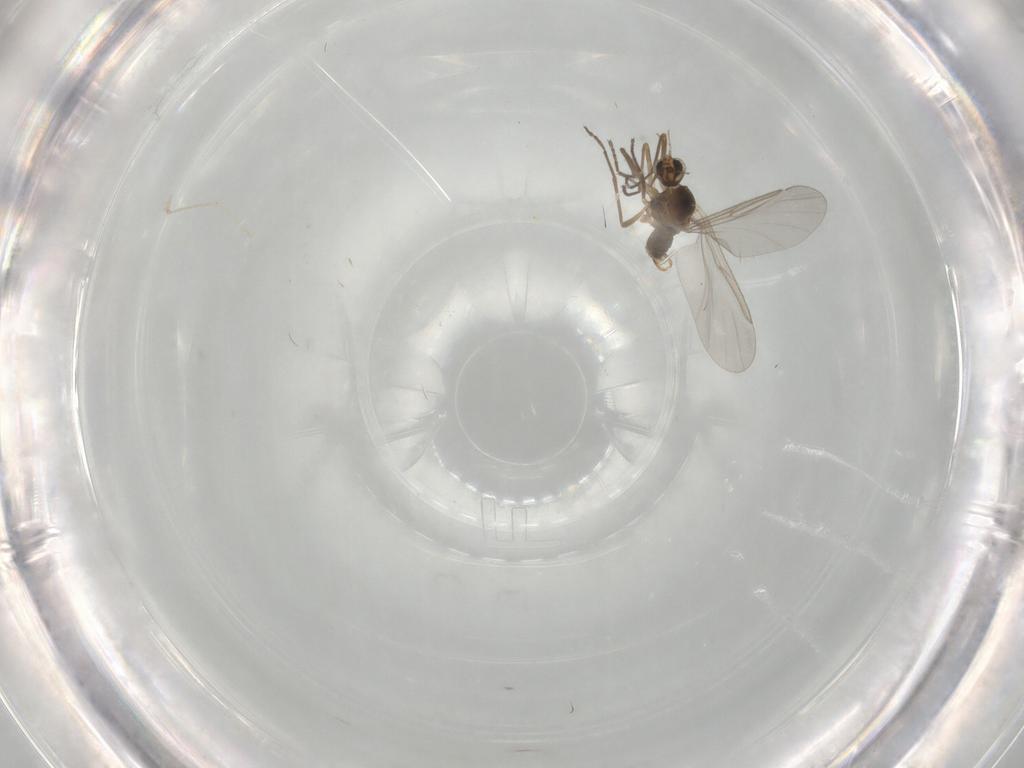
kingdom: Animalia
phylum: Arthropoda
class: Insecta
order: Diptera
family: Cecidomyiidae
